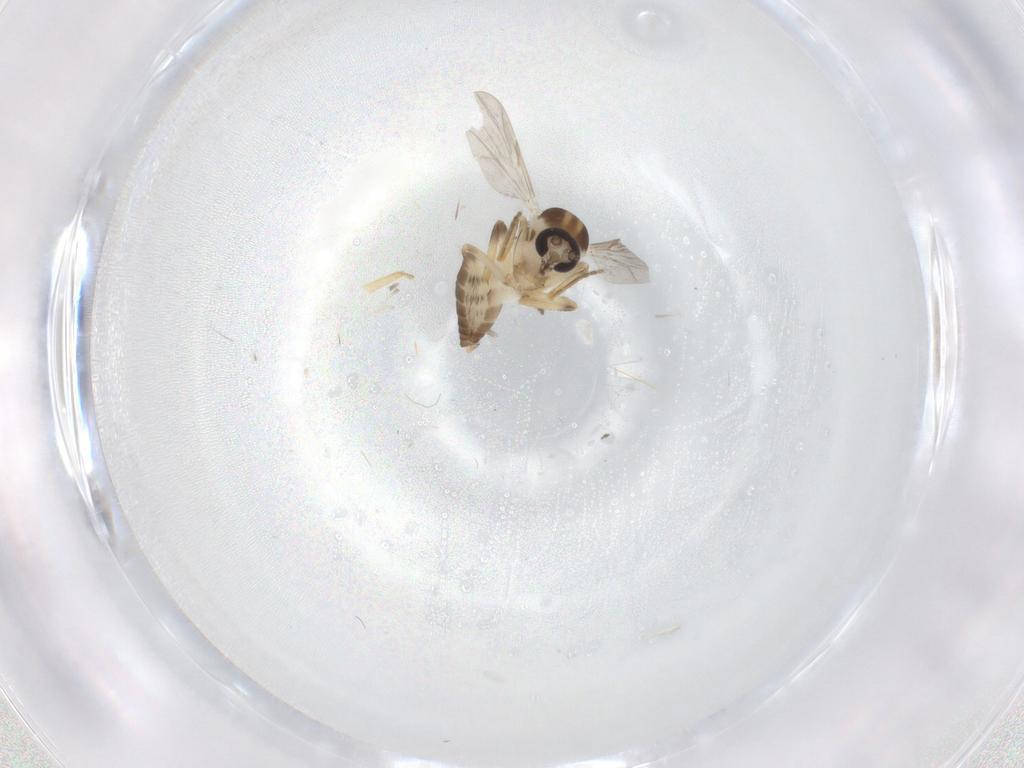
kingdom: Animalia
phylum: Arthropoda
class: Insecta
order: Diptera
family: Ceratopogonidae
